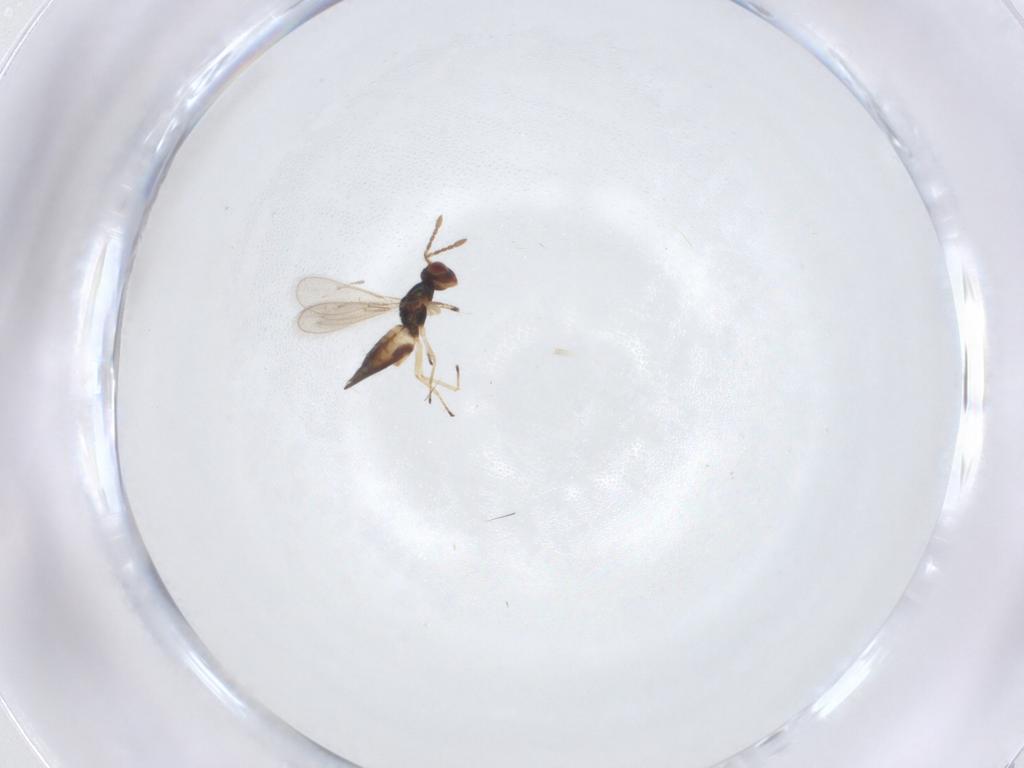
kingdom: Animalia
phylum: Arthropoda
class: Insecta
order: Hymenoptera
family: Eulophidae
